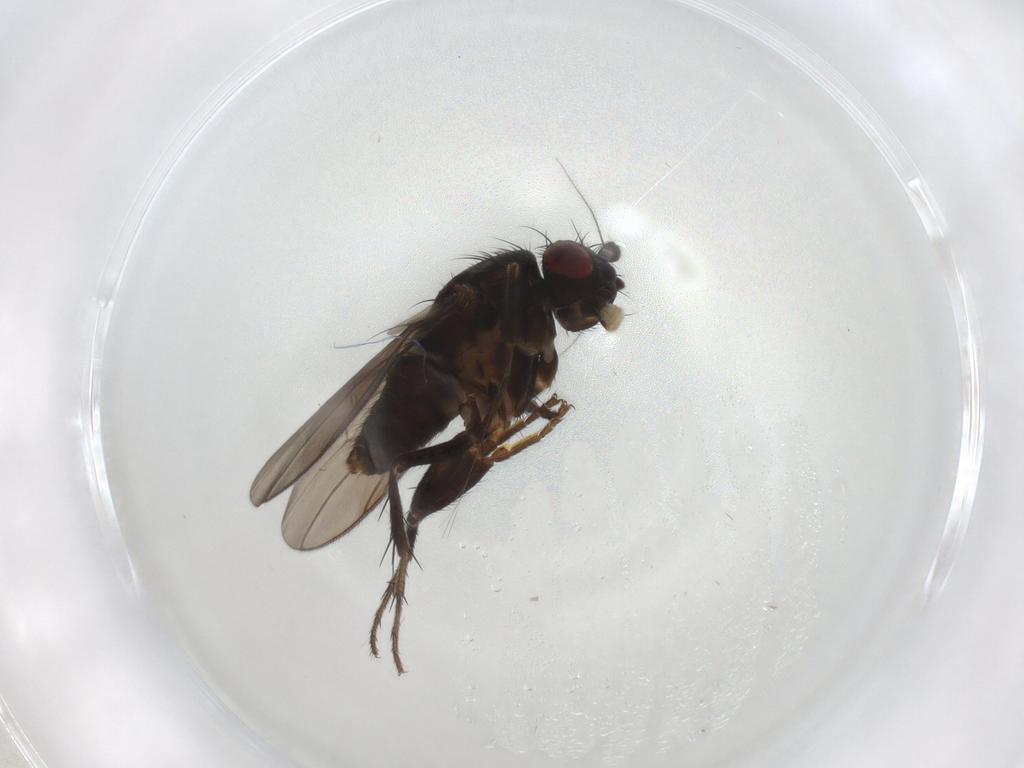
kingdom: Animalia
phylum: Arthropoda
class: Insecta
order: Diptera
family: Sphaeroceridae
